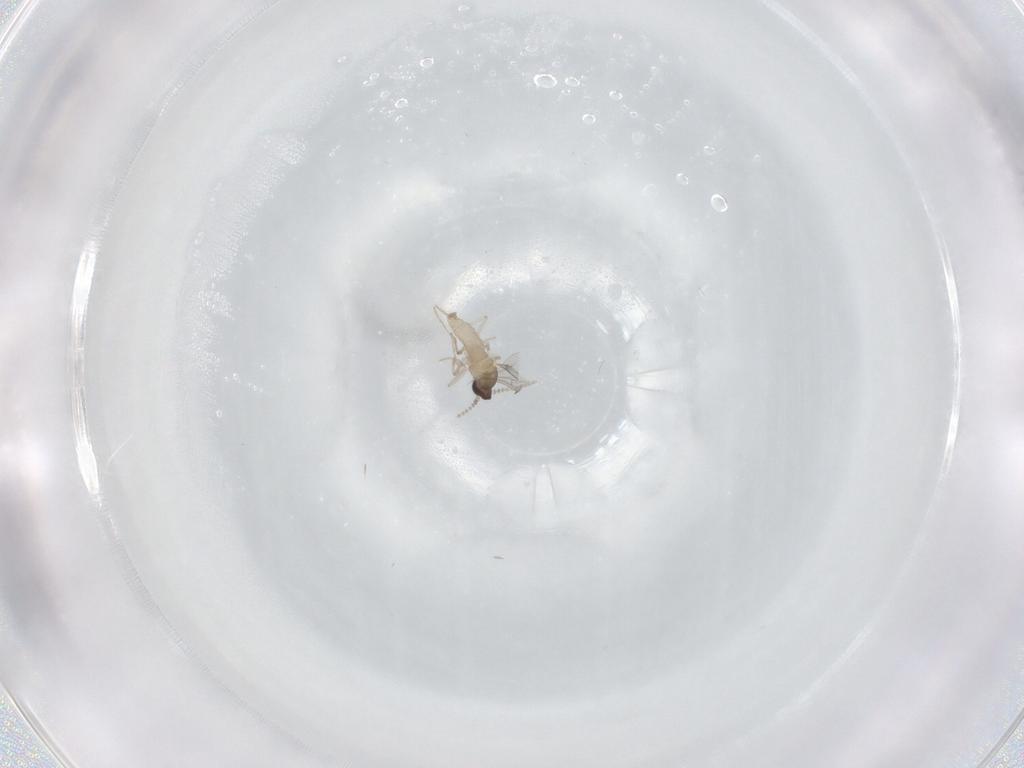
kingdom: Animalia
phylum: Arthropoda
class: Insecta
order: Diptera
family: Cecidomyiidae
